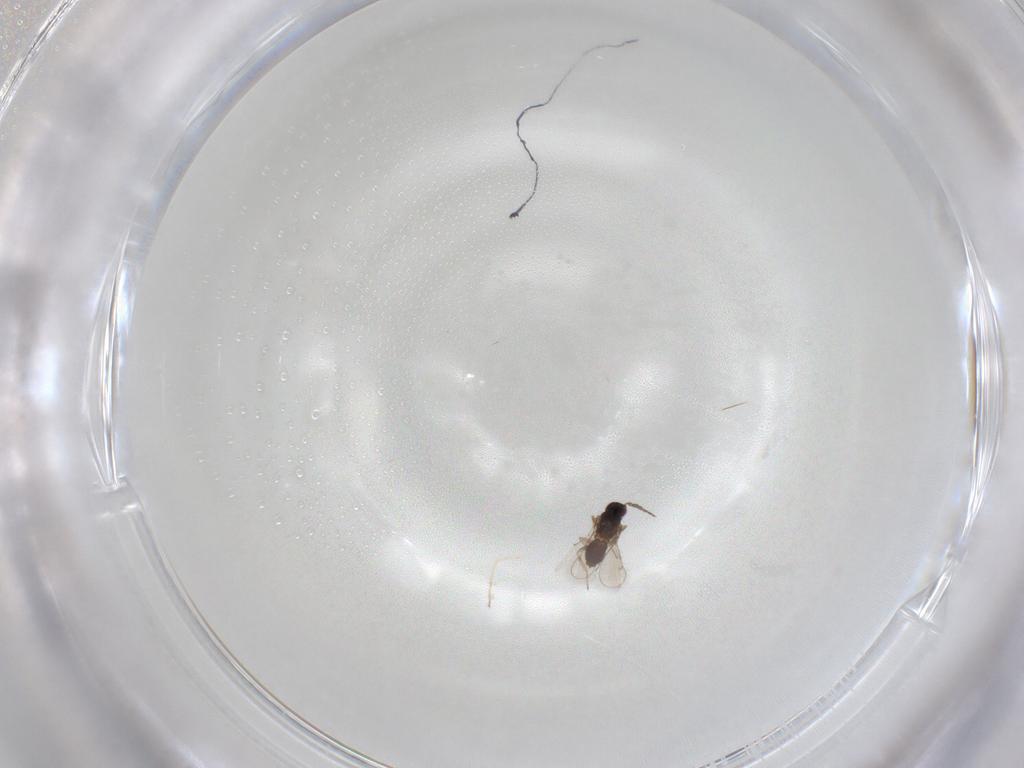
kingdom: Animalia
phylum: Arthropoda
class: Insecta
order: Hymenoptera
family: Eulophidae
